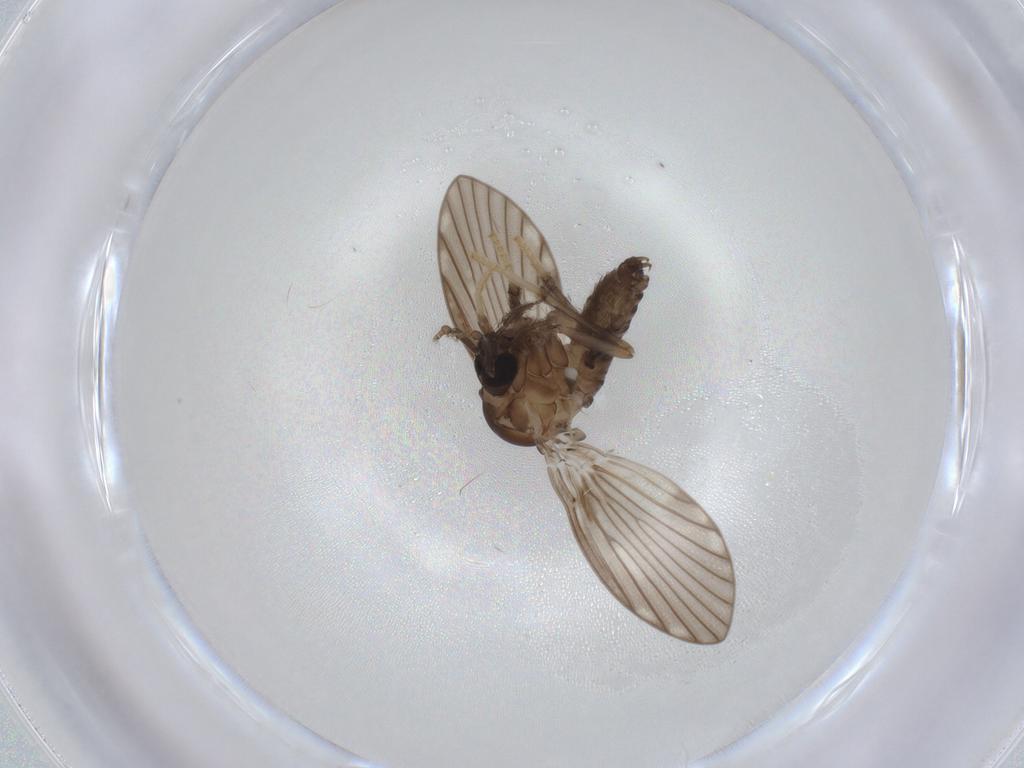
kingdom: Animalia
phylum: Arthropoda
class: Insecta
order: Diptera
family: Psychodidae
